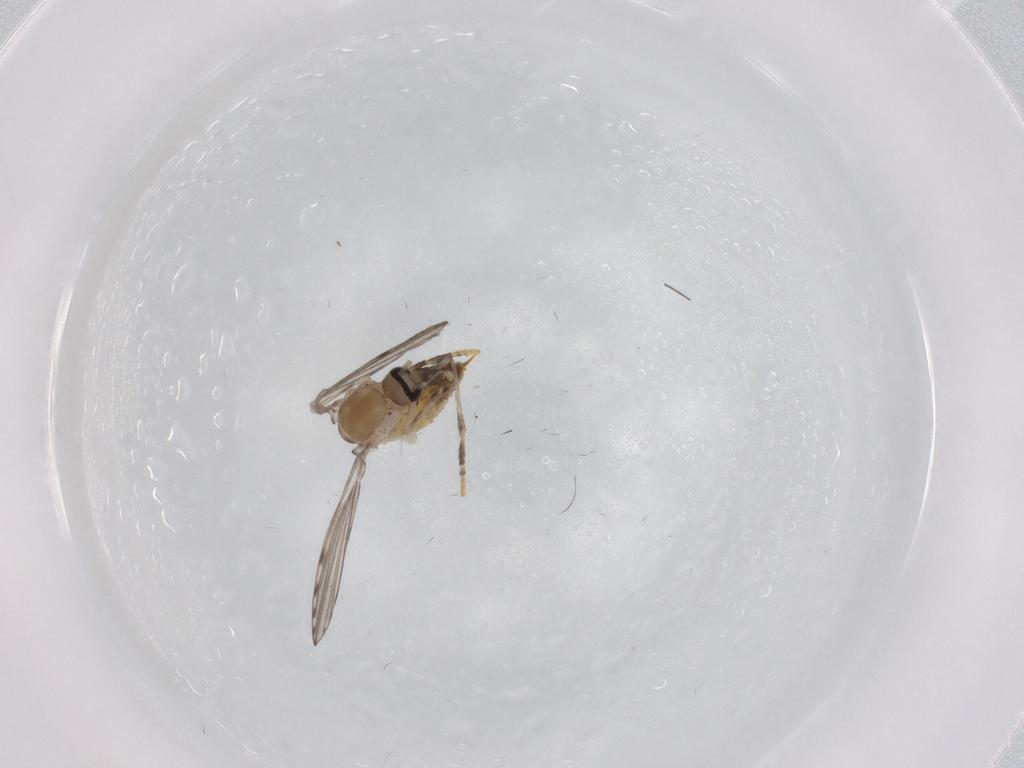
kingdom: Animalia
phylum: Arthropoda
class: Insecta
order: Diptera
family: Psychodidae
